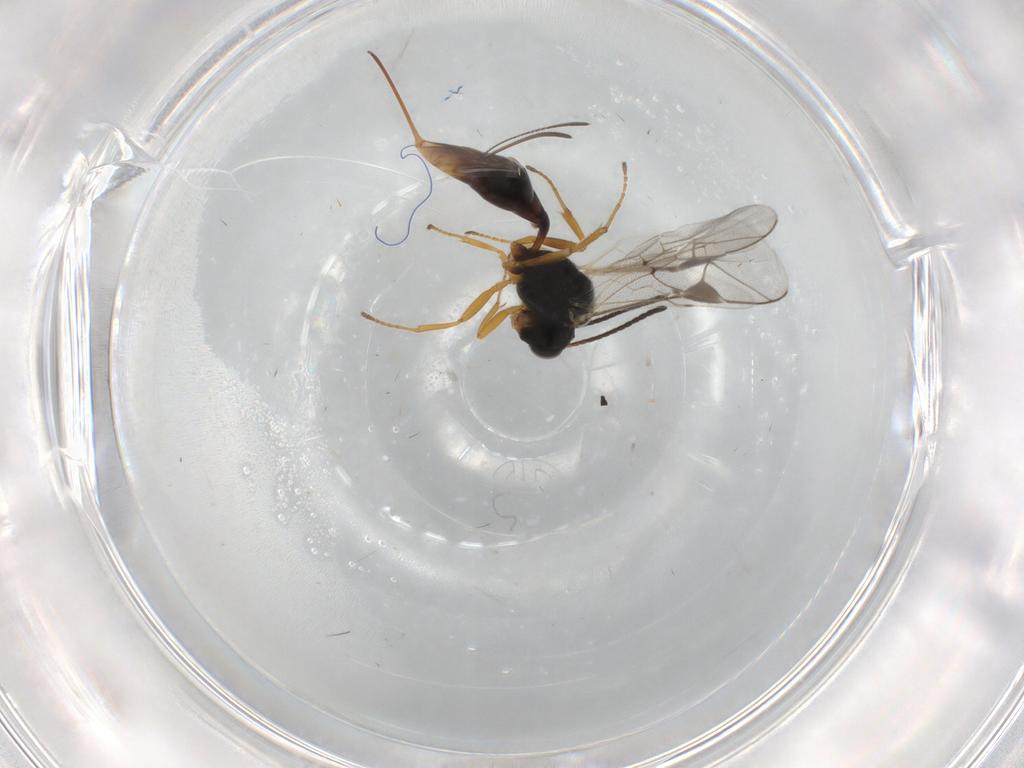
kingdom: Animalia
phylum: Arthropoda
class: Insecta
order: Hymenoptera
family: Ichneumonidae
